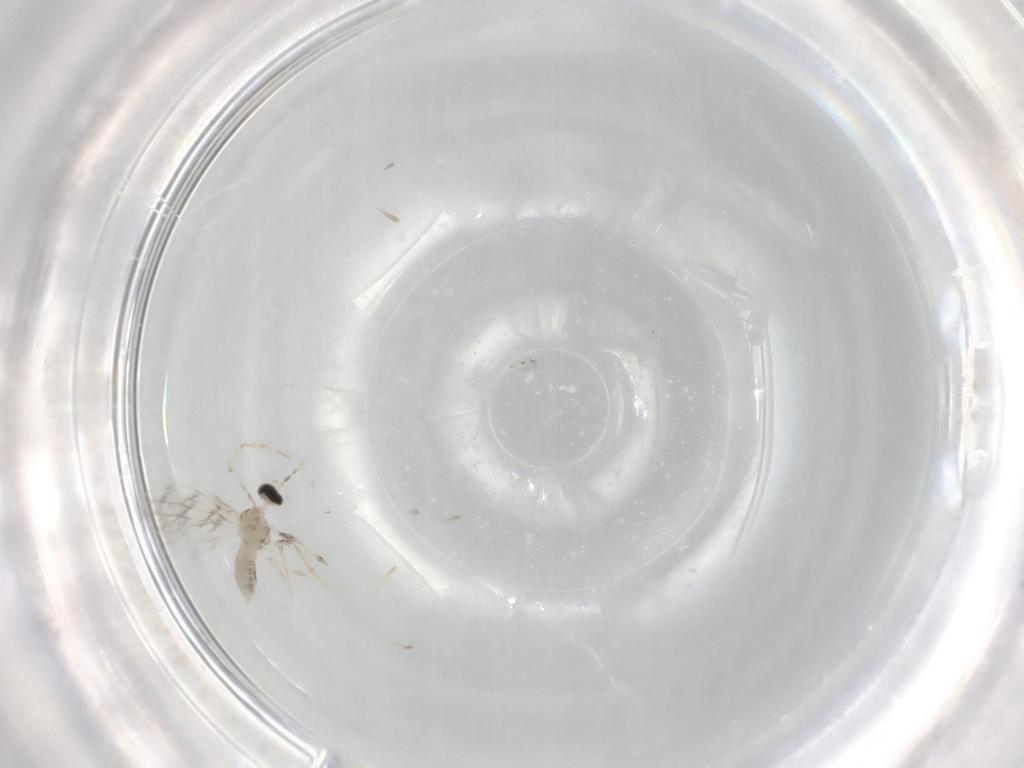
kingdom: Animalia
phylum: Arthropoda
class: Insecta
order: Diptera
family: Cecidomyiidae
